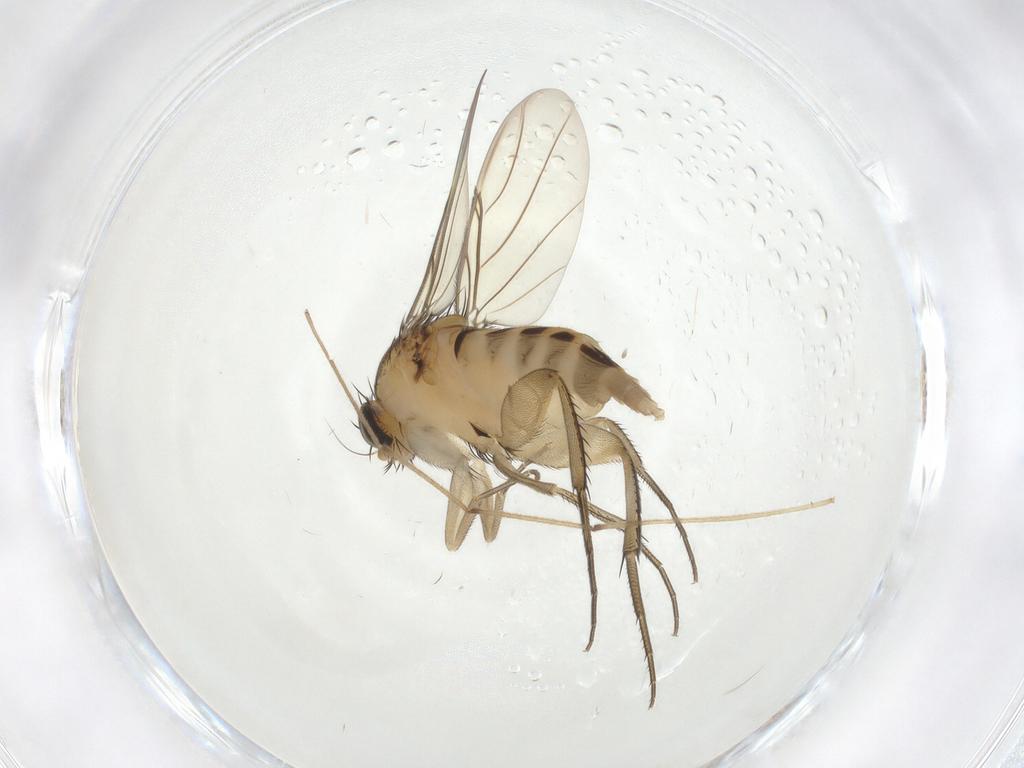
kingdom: Animalia
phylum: Arthropoda
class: Insecta
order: Diptera
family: Phoridae
